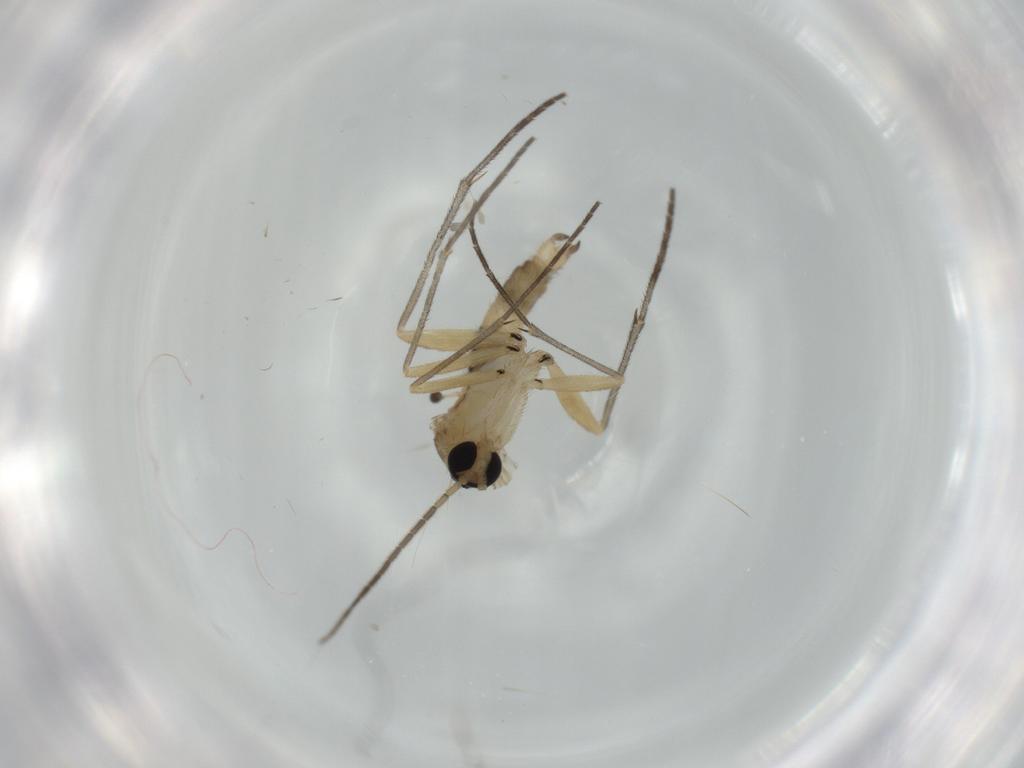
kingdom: Animalia
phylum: Arthropoda
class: Insecta
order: Diptera
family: Sciaridae
